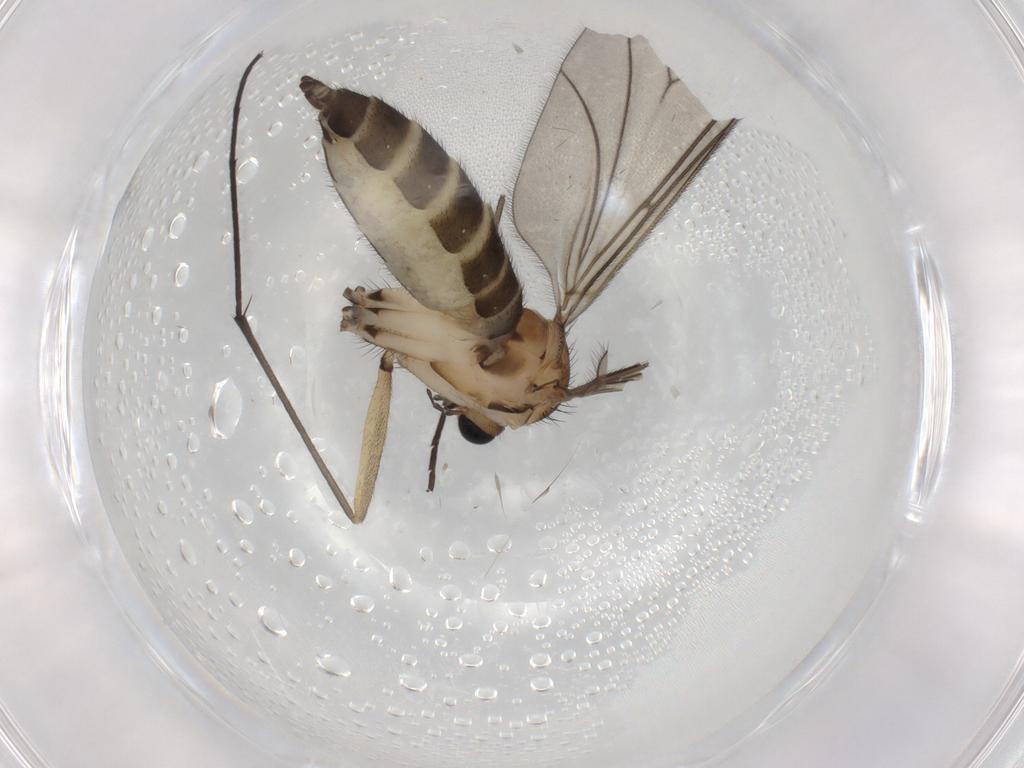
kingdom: Animalia
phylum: Arthropoda
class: Insecta
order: Diptera
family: Sciaridae
